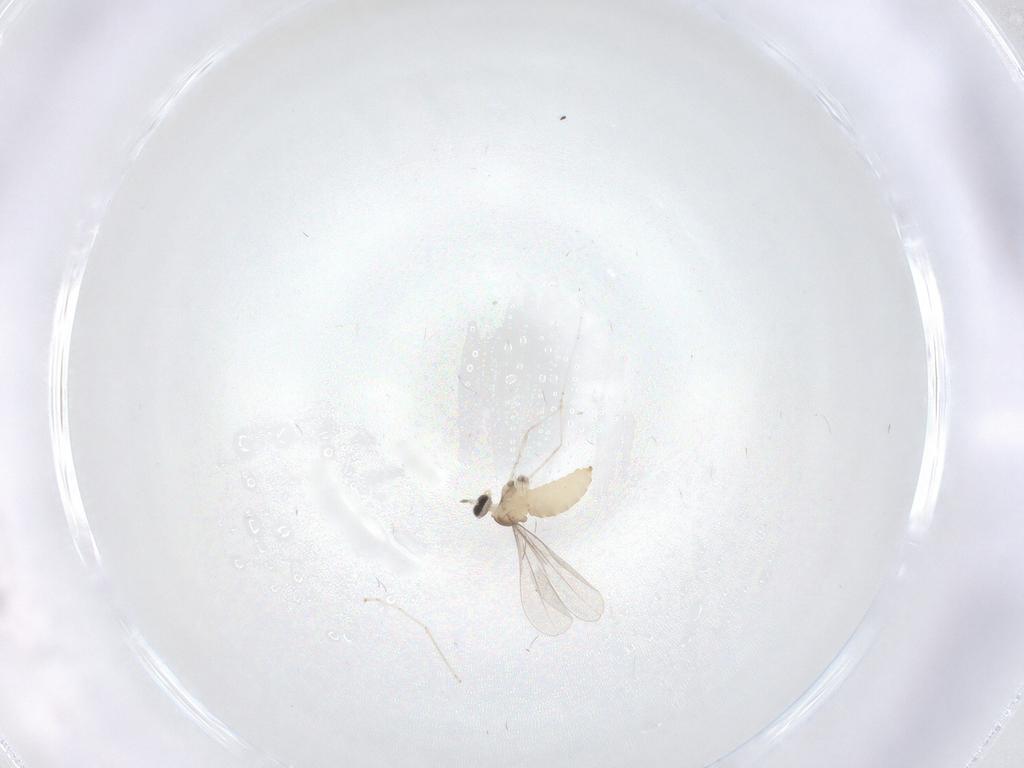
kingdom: Animalia
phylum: Arthropoda
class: Insecta
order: Diptera
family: Cecidomyiidae
